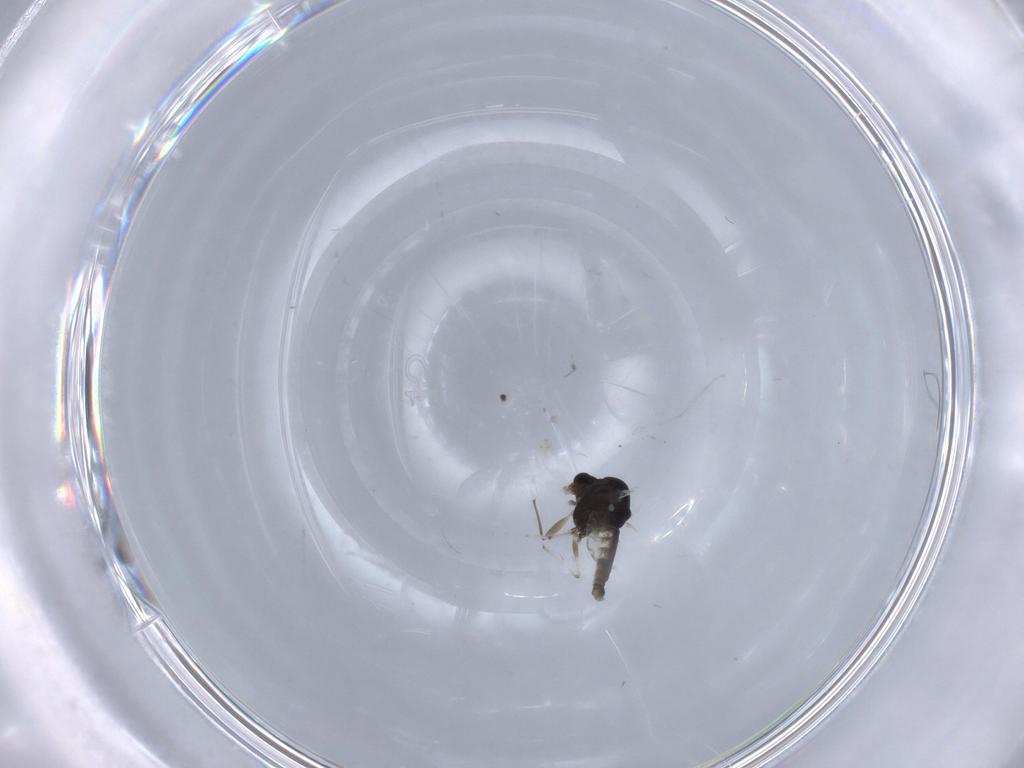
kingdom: Animalia
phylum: Arthropoda
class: Insecta
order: Diptera
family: Chironomidae
